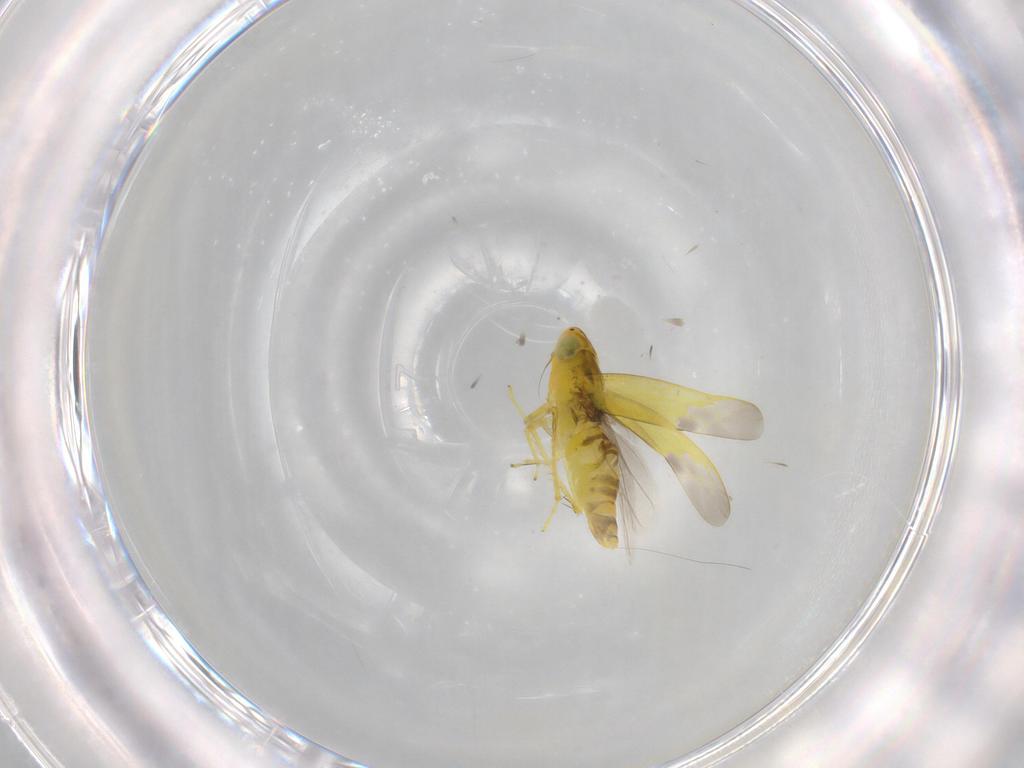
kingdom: Animalia
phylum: Arthropoda
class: Insecta
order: Hemiptera
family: Cicadellidae
